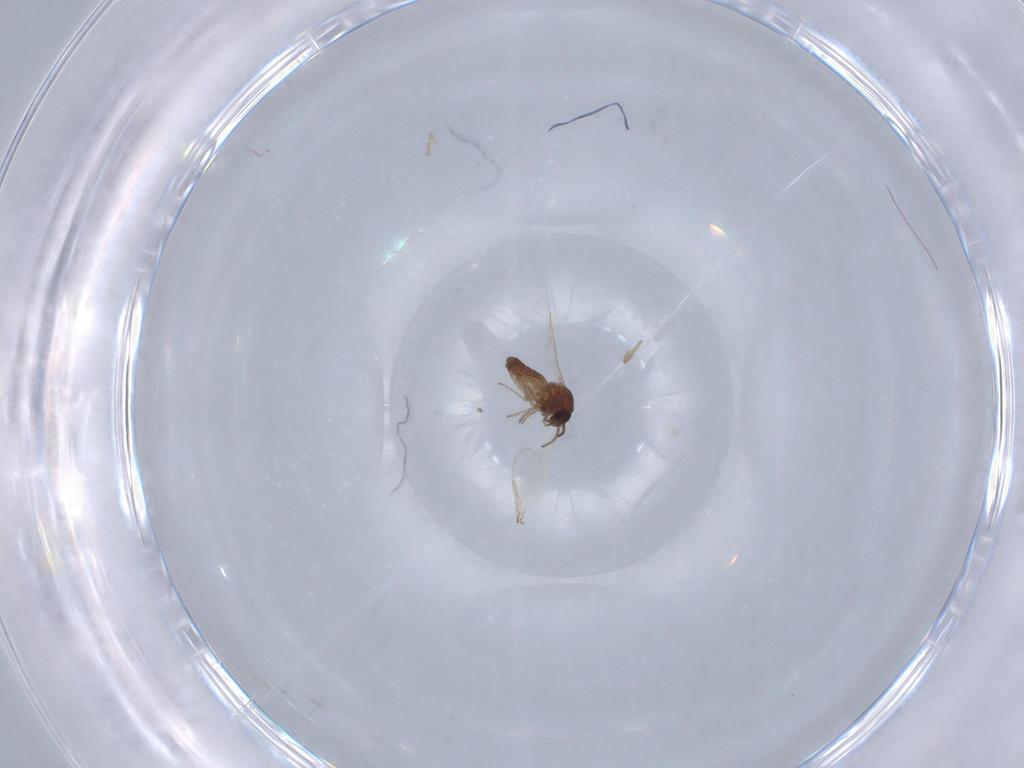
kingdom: Animalia
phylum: Arthropoda
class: Insecta
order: Diptera
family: Ceratopogonidae
